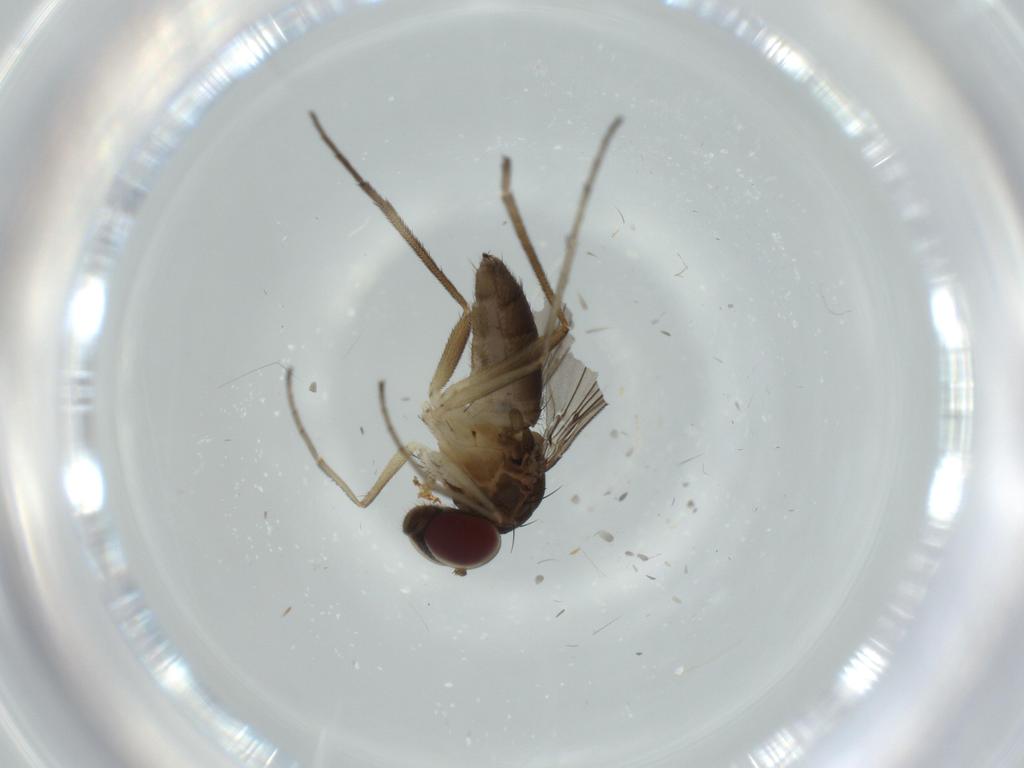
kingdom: Animalia
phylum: Arthropoda
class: Insecta
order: Diptera
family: Dolichopodidae
